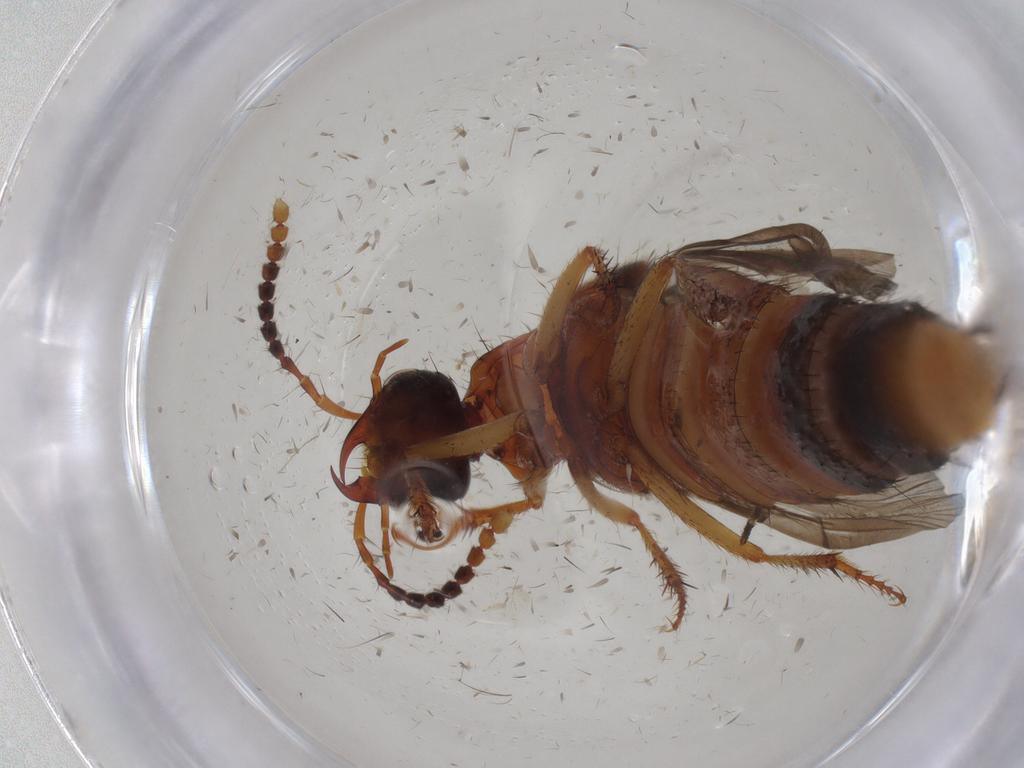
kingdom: Animalia
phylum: Arthropoda
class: Insecta
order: Coleoptera
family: Staphylinidae
